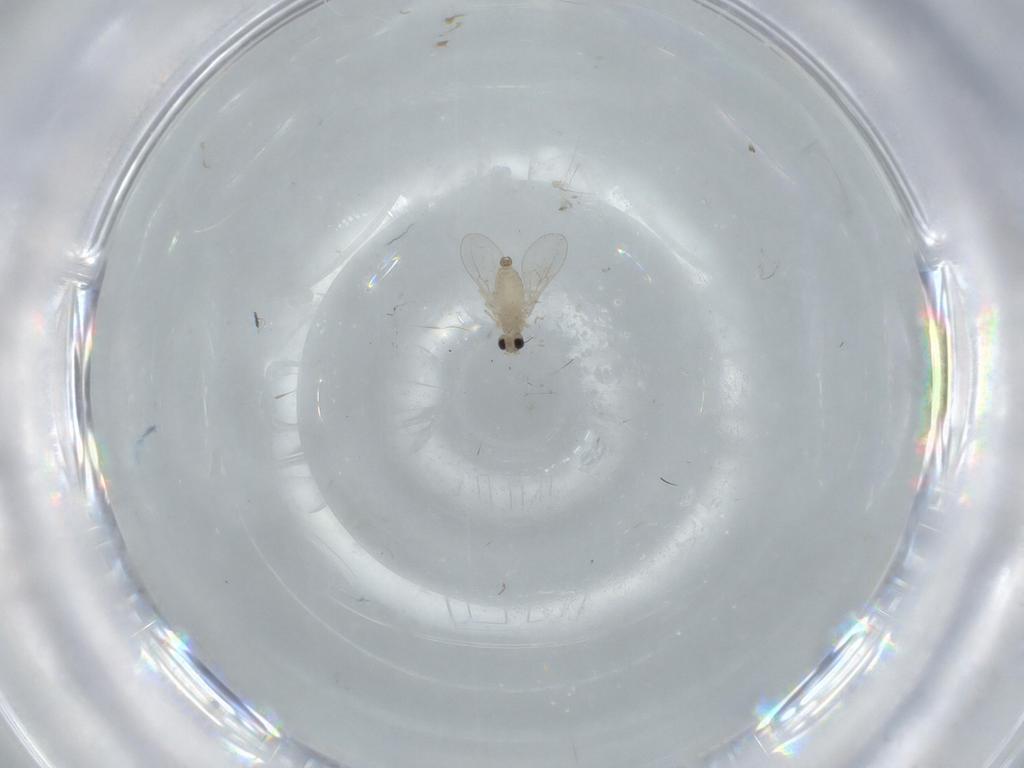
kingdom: Animalia
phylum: Arthropoda
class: Insecta
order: Diptera
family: Cecidomyiidae
